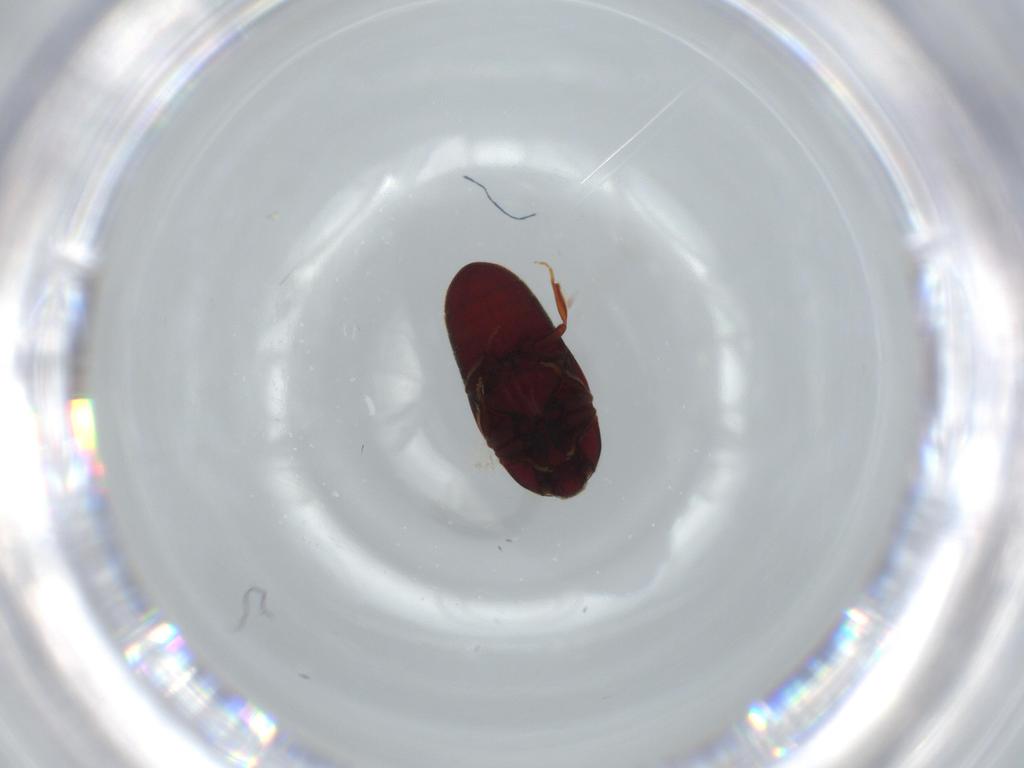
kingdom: Animalia
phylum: Arthropoda
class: Insecta
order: Coleoptera
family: Throscidae
